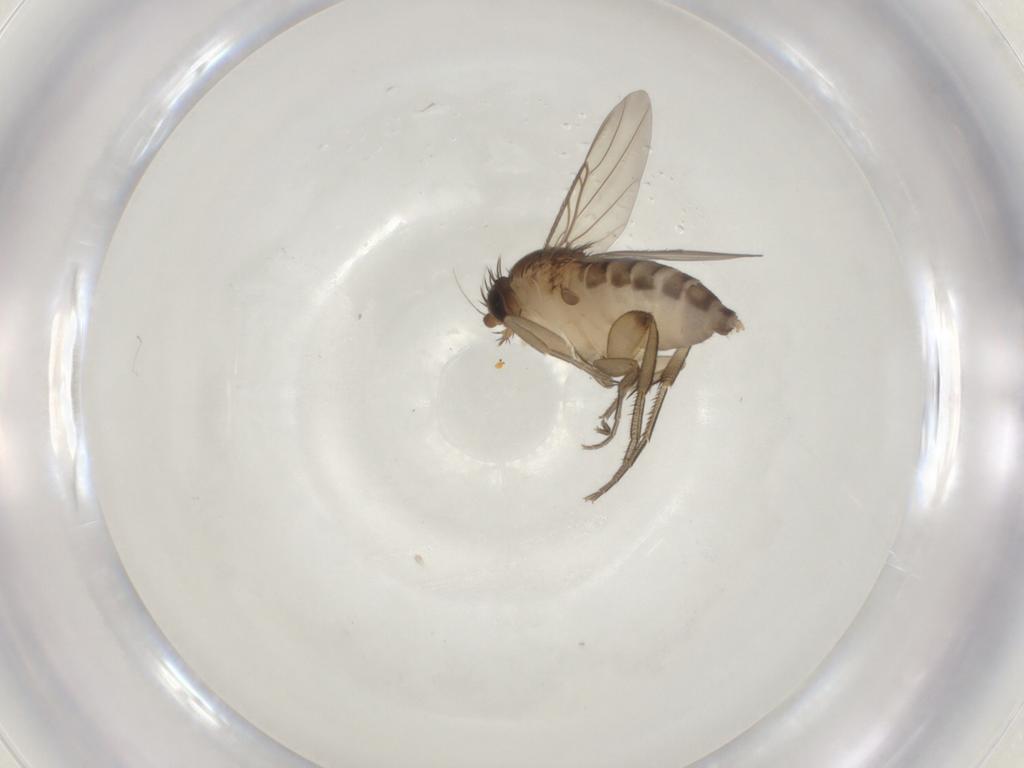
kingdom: Animalia
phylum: Arthropoda
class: Insecta
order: Diptera
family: Phoridae
